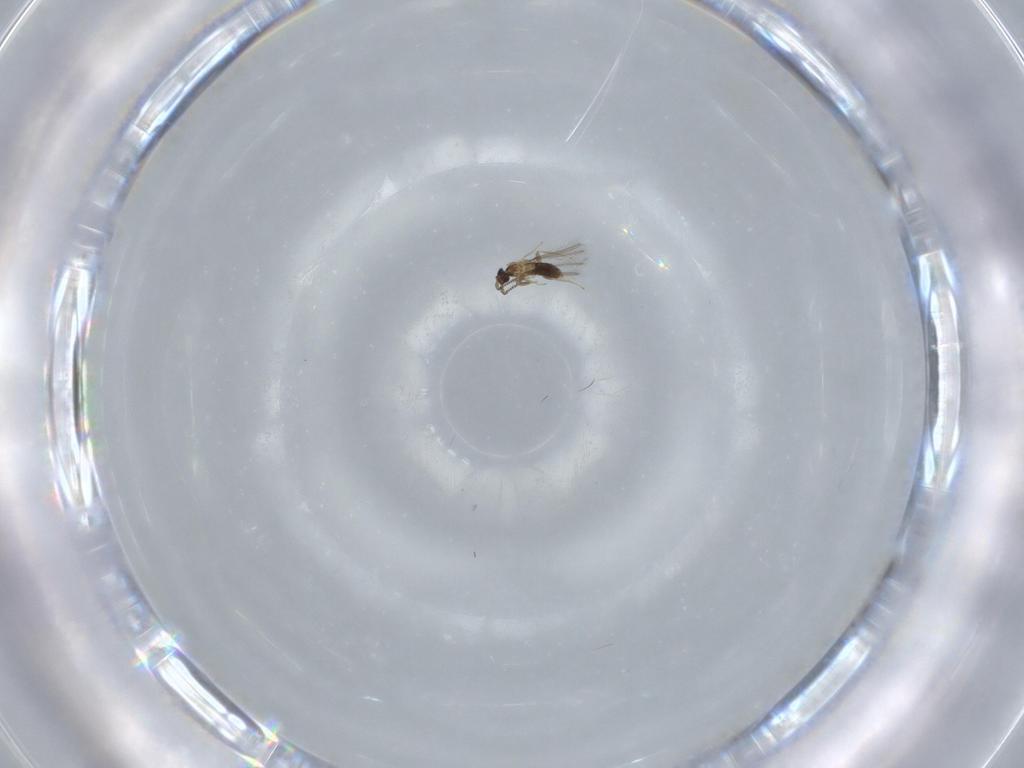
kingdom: Animalia
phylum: Arthropoda
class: Insecta
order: Hymenoptera
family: Mymaridae
